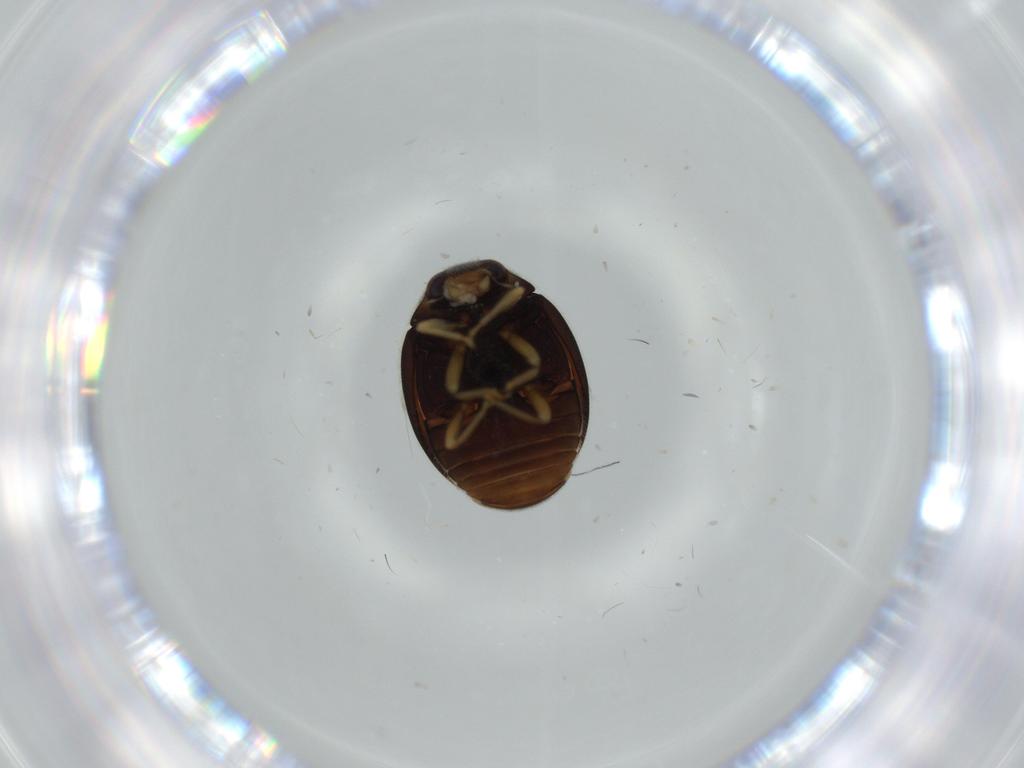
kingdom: Animalia
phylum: Arthropoda
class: Insecta
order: Coleoptera
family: Coccinellidae
